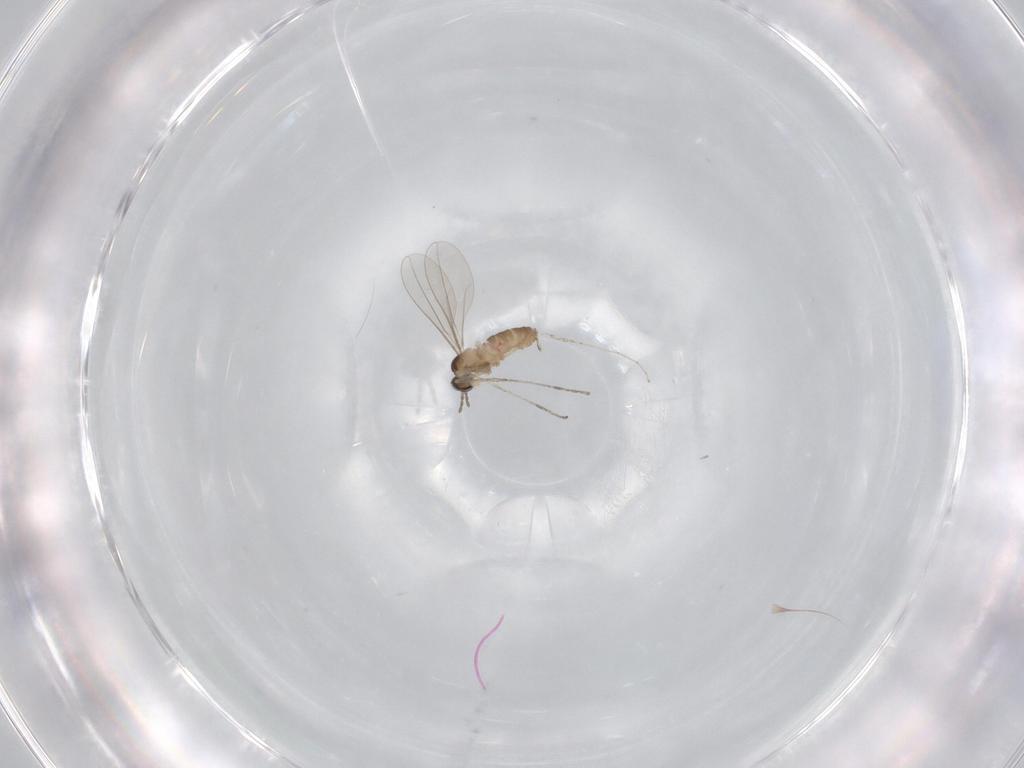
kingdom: Animalia
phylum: Arthropoda
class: Insecta
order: Diptera
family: Cecidomyiidae
